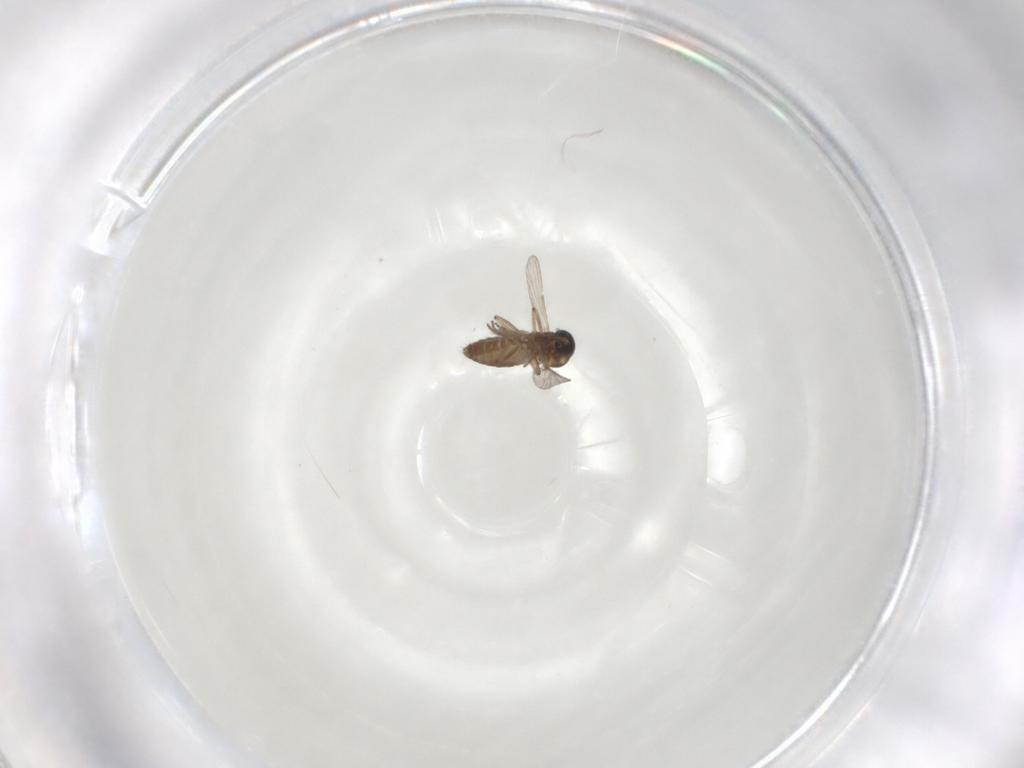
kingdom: Animalia
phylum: Arthropoda
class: Insecta
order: Diptera
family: Ceratopogonidae
